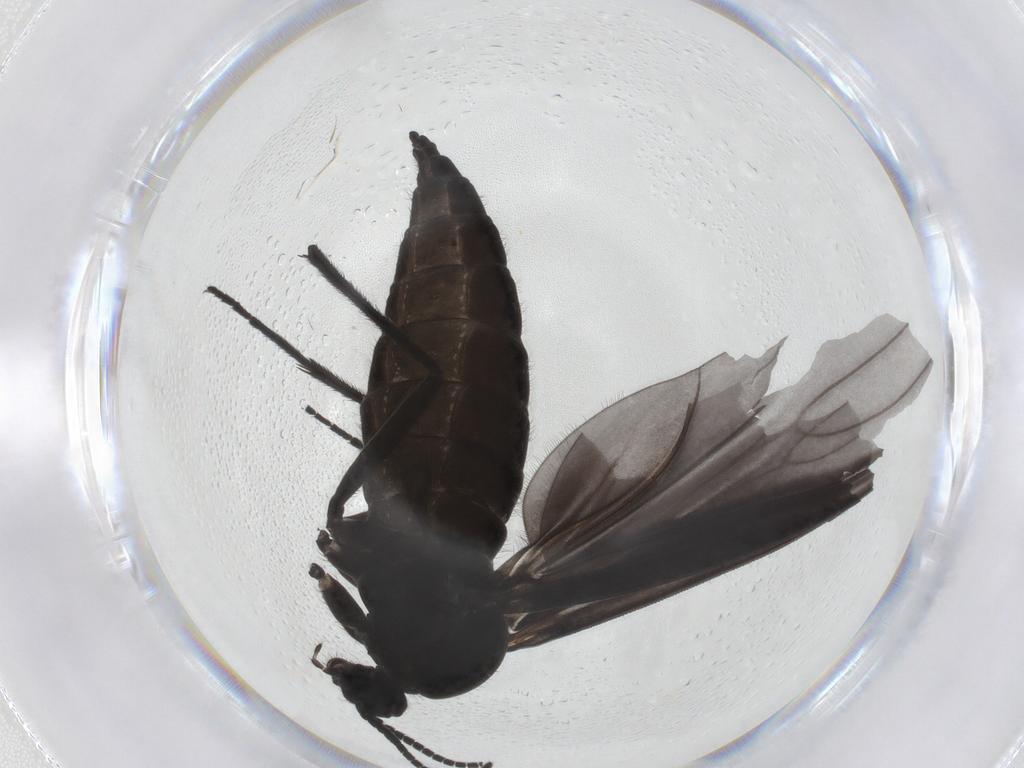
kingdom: Animalia
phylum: Arthropoda
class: Insecta
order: Diptera
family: Sciaridae
